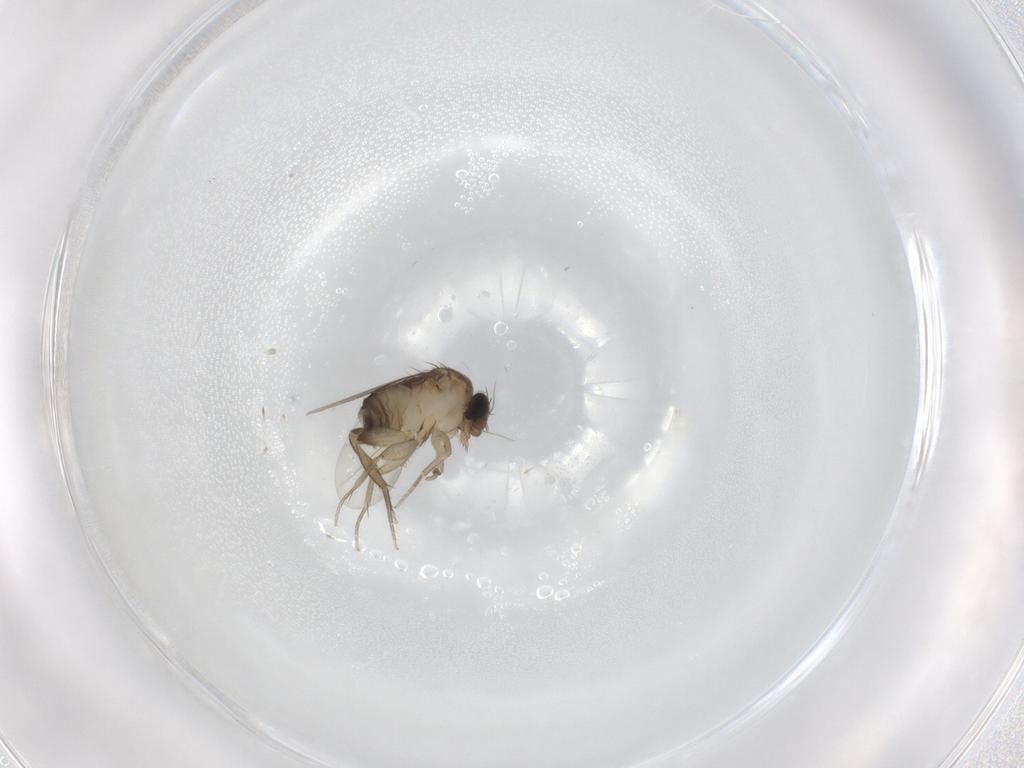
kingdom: Animalia
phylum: Arthropoda
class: Insecta
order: Diptera
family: Phoridae
